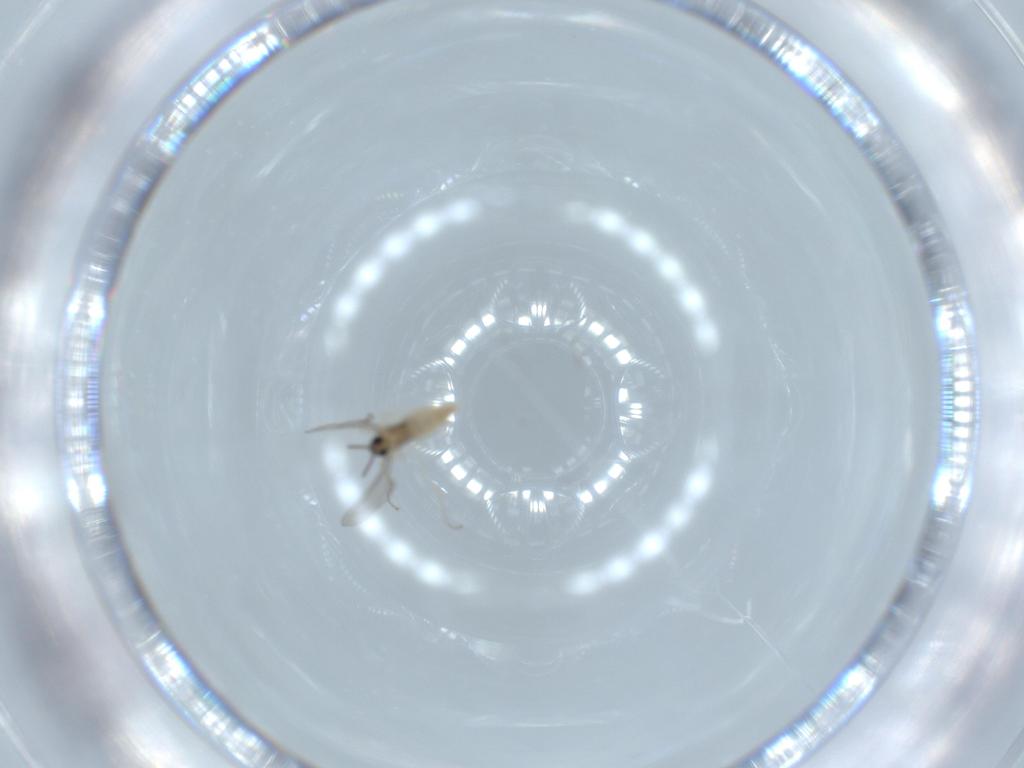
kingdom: Animalia
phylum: Arthropoda
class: Insecta
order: Diptera
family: Cecidomyiidae
